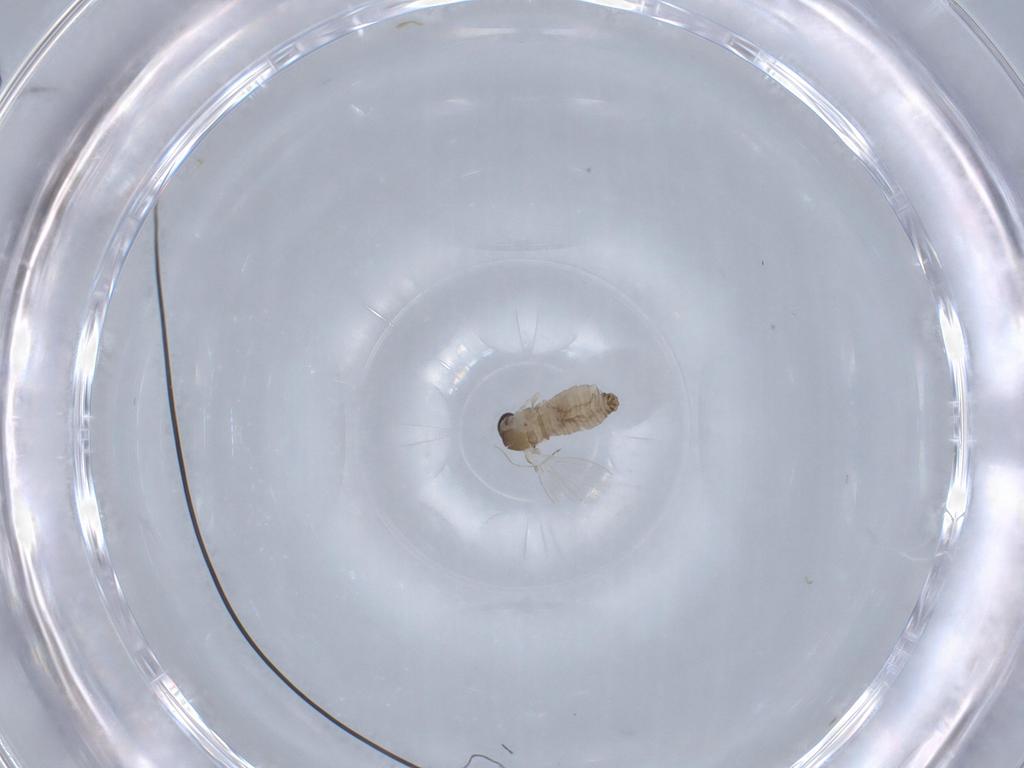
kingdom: Animalia
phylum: Arthropoda
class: Insecta
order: Diptera
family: Psychodidae
